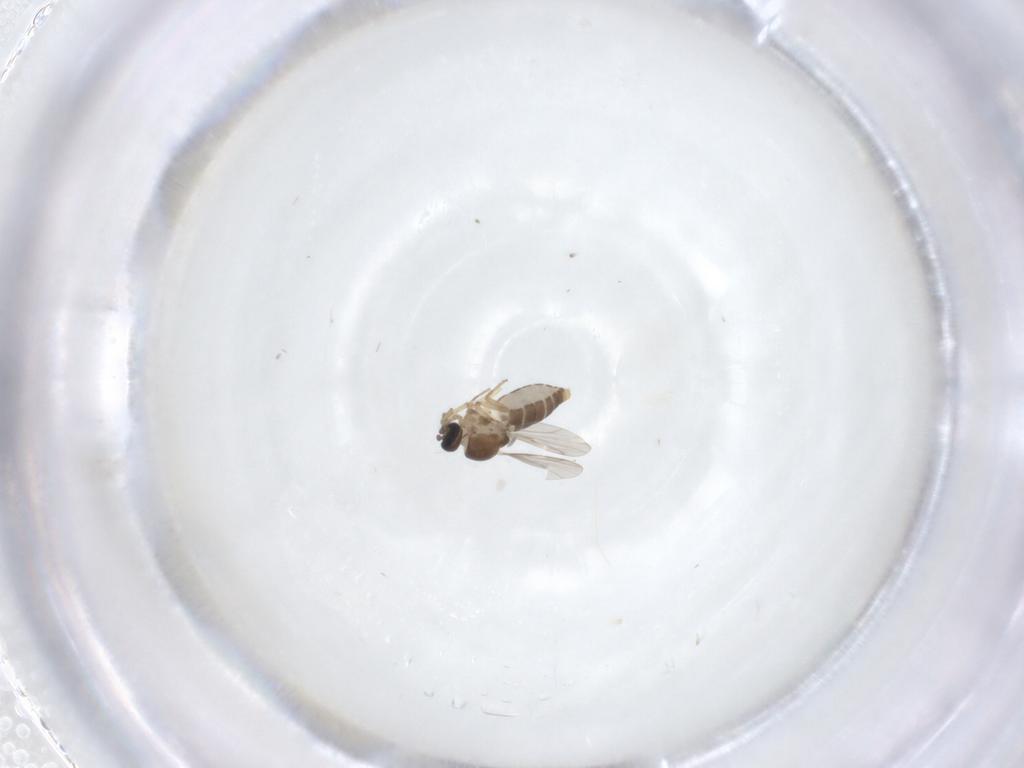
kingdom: Animalia
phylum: Arthropoda
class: Insecta
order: Diptera
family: Ceratopogonidae
